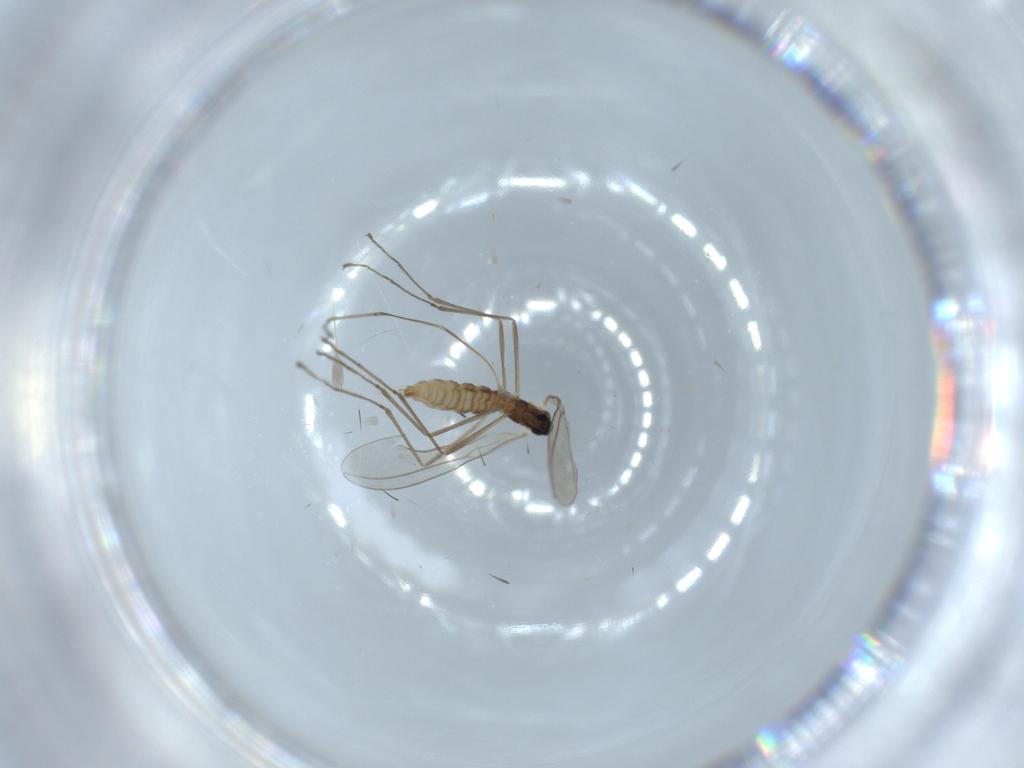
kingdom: Animalia
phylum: Arthropoda
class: Insecta
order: Diptera
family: Cecidomyiidae
